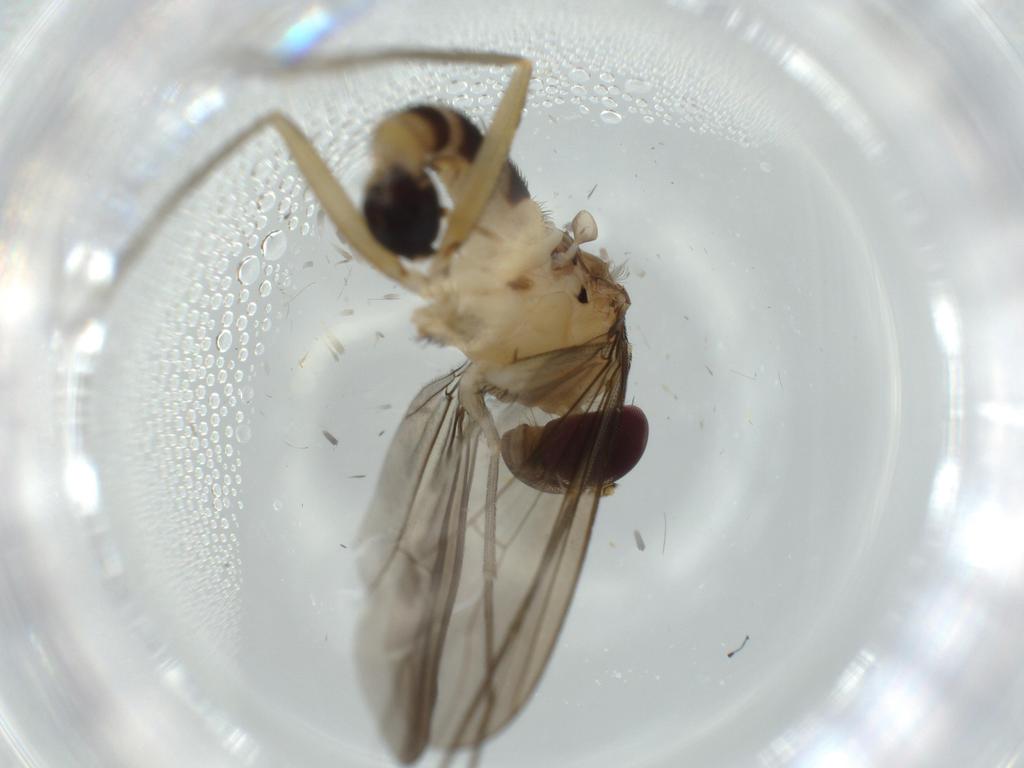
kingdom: Animalia
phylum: Arthropoda
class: Insecta
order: Diptera
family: Dolichopodidae
